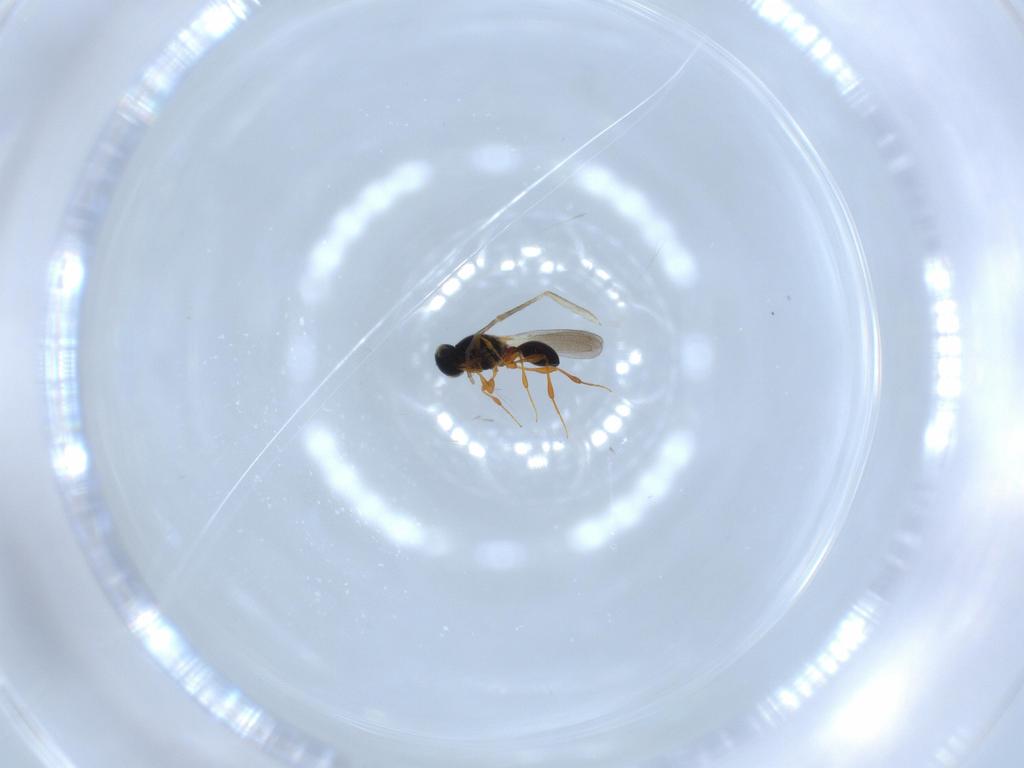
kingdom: Animalia
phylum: Arthropoda
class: Insecta
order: Hymenoptera
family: Platygastridae
